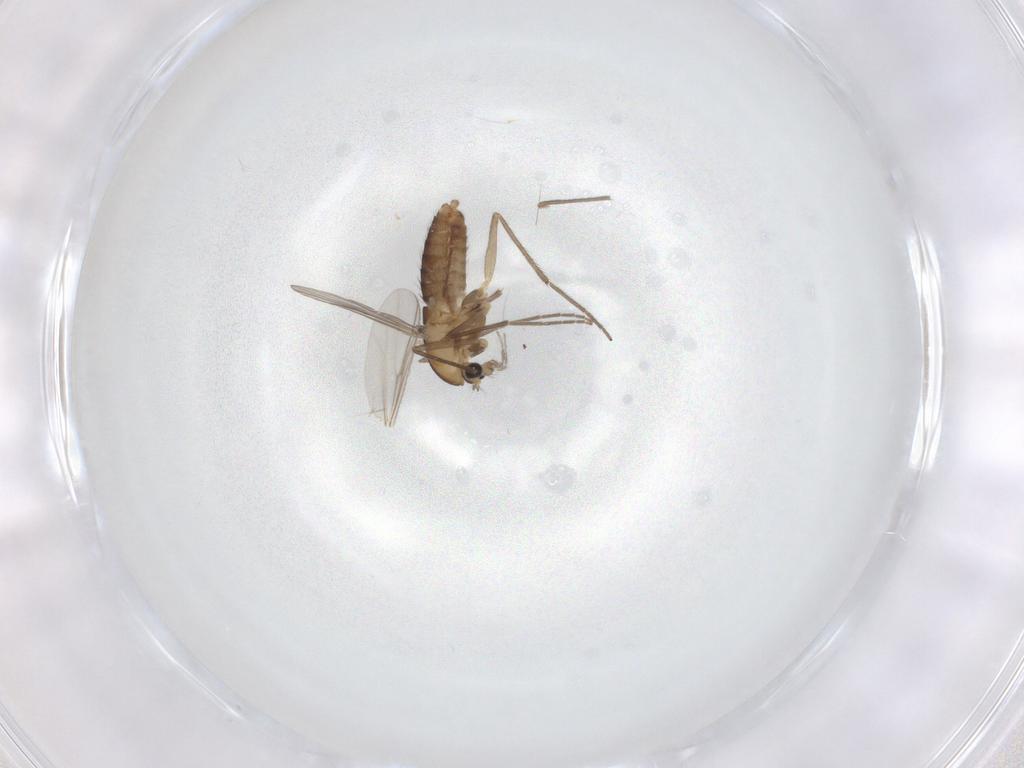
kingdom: Animalia
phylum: Arthropoda
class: Insecta
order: Diptera
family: Chironomidae
